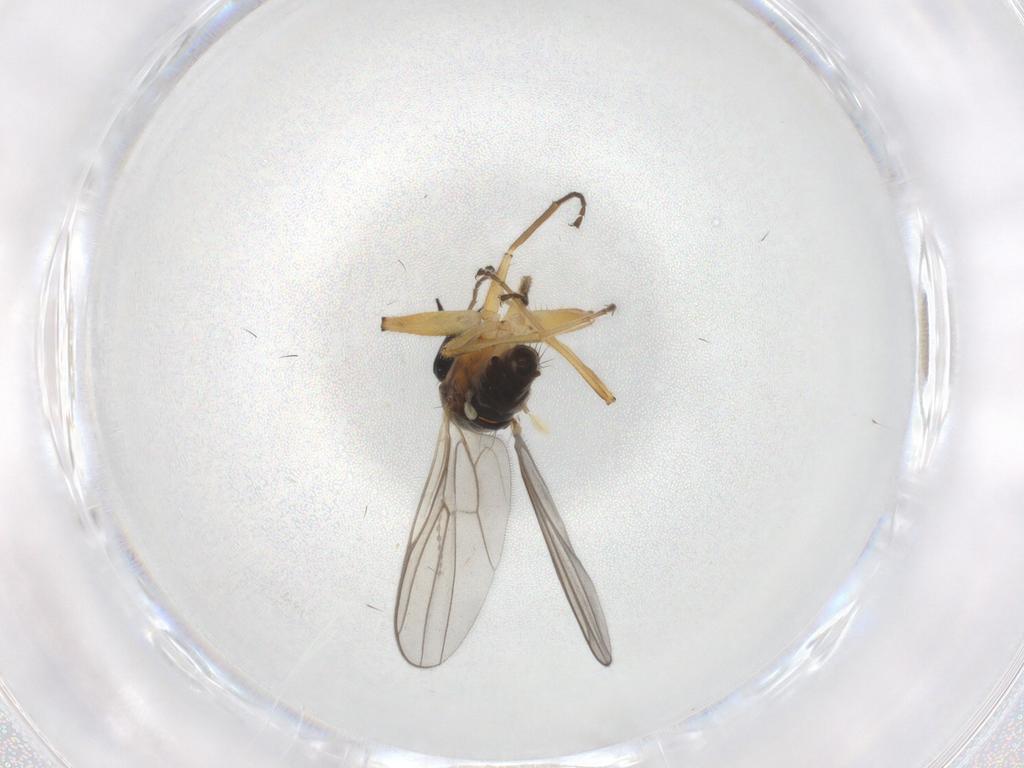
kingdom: Animalia
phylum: Arthropoda
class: Insecta
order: Diptera
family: Hybotidae
